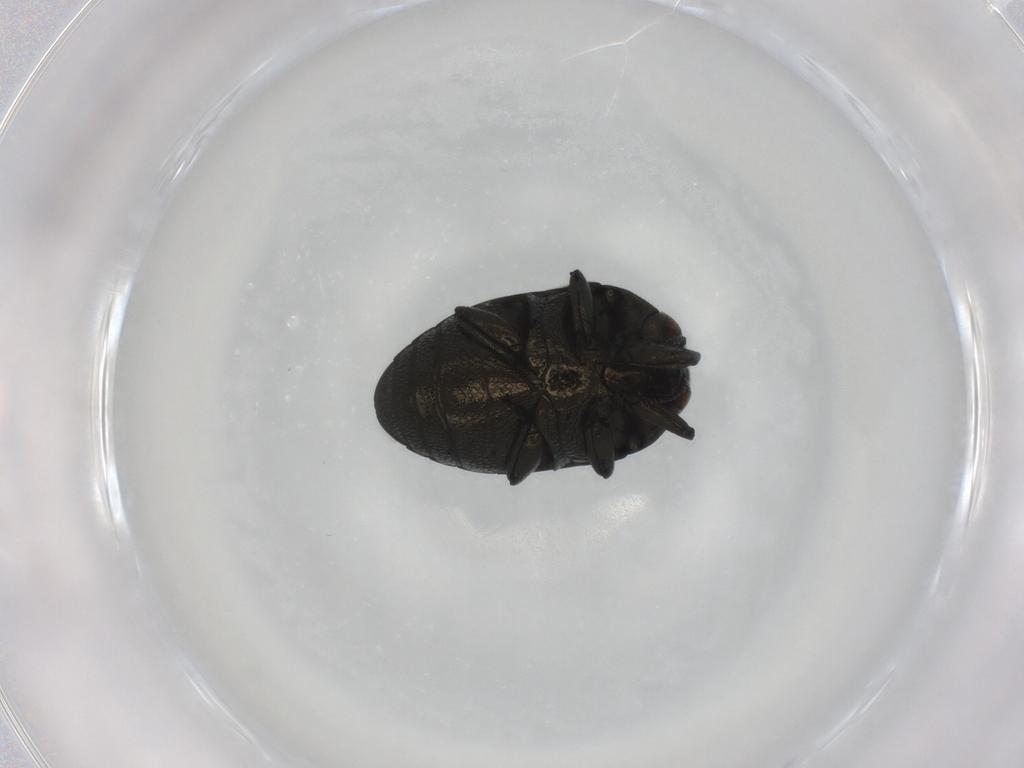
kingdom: Animalia
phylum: Arthropoda
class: Insecta
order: Coleoptera
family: Buprestidae
